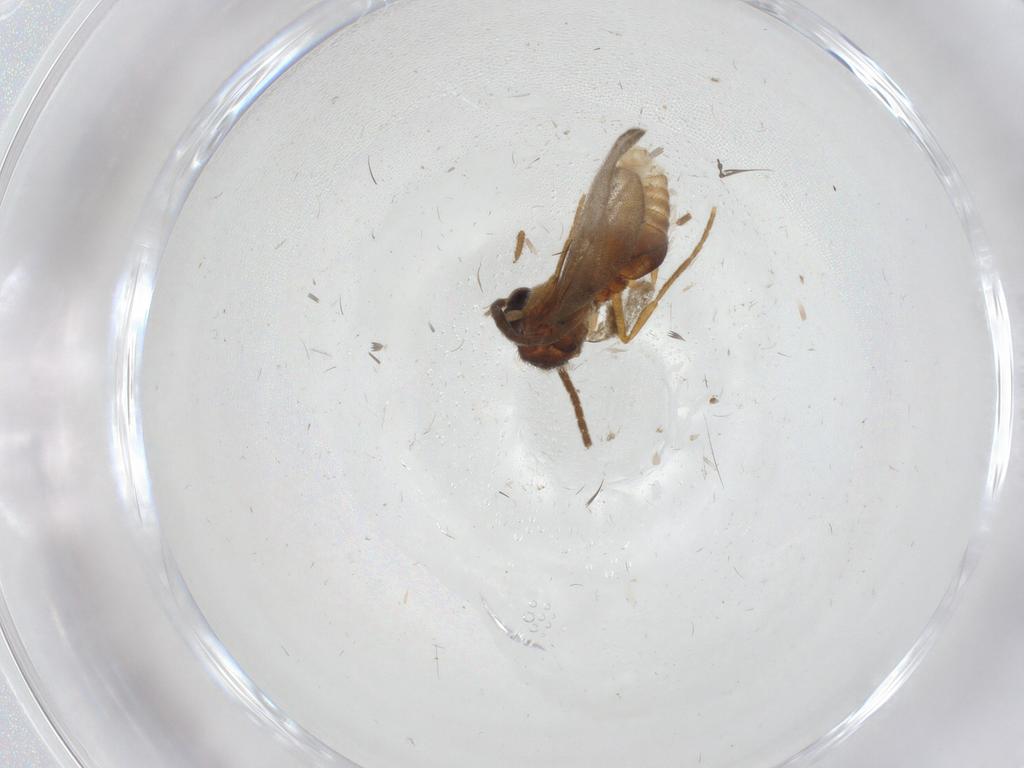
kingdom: Animalia
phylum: Arthropoda
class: Insecta
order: Diptera
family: Cecidomyiidae
